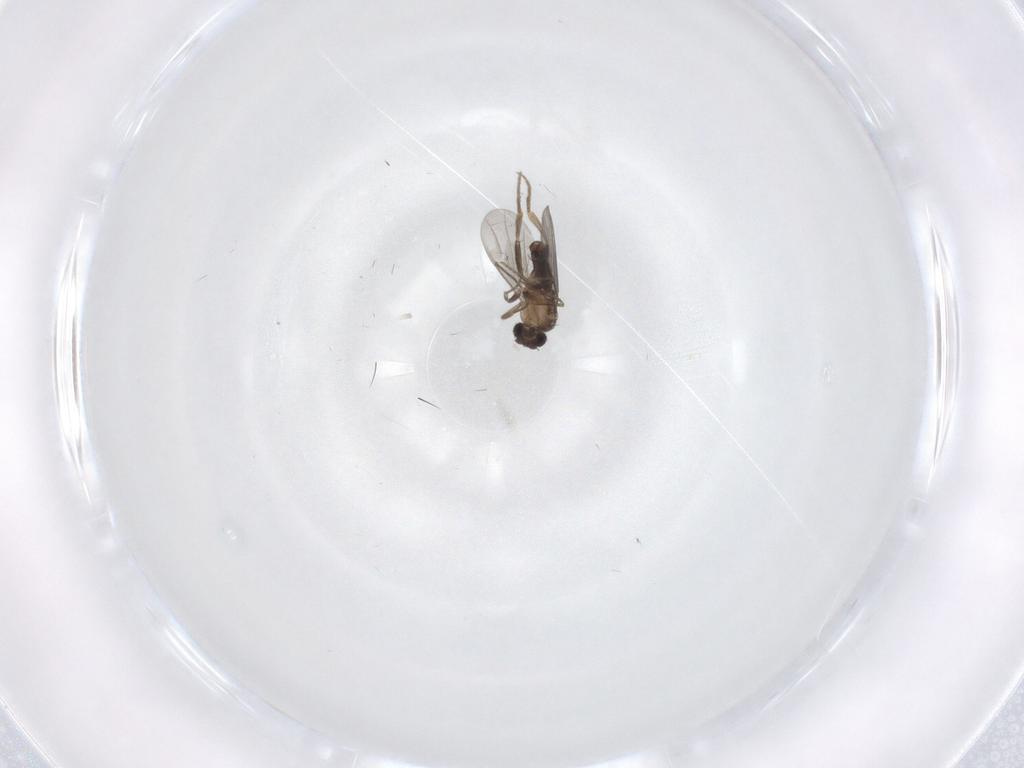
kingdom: Animalia
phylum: Arthropoda
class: Insecta
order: Diptera
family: Tabanidae
